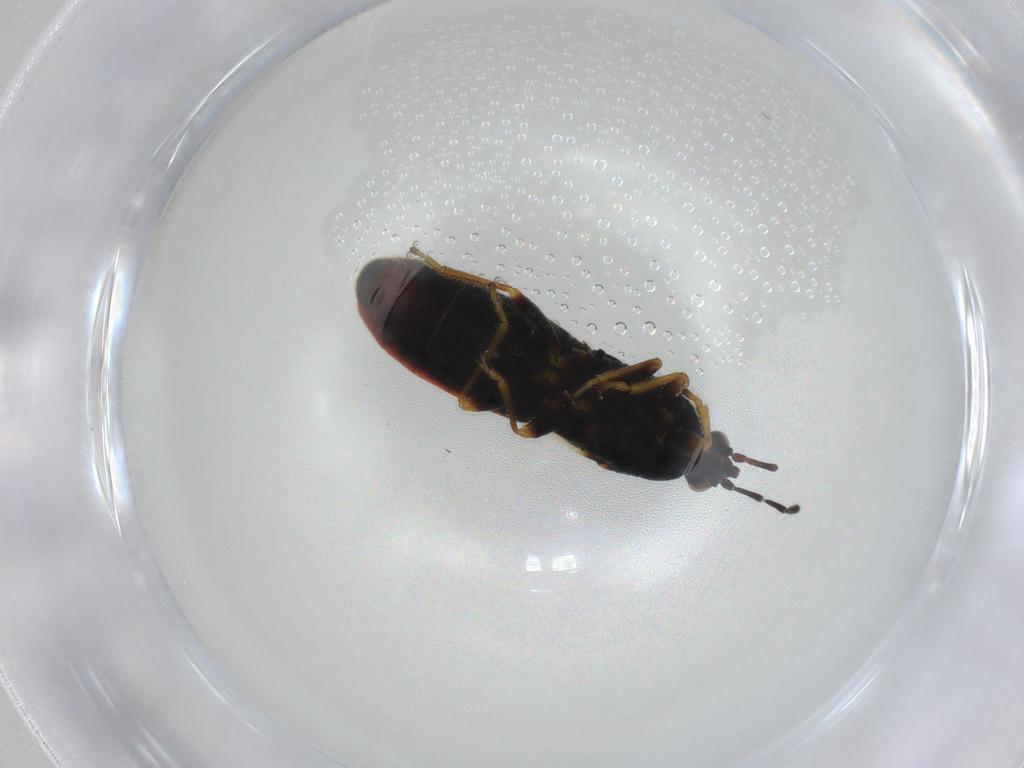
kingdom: Animalia
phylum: Arthropoda
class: Insecta
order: Hemiptera
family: Blissidae
